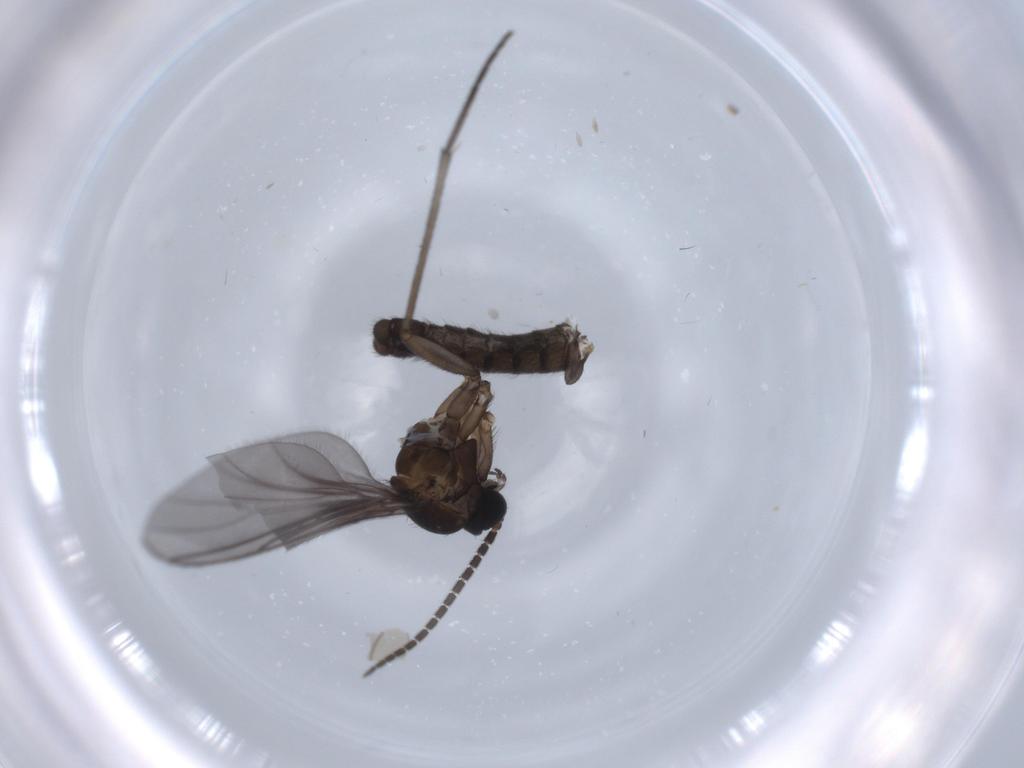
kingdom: Animalia
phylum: Arthropoda
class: Insecta
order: Diptera
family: Sciaridae
